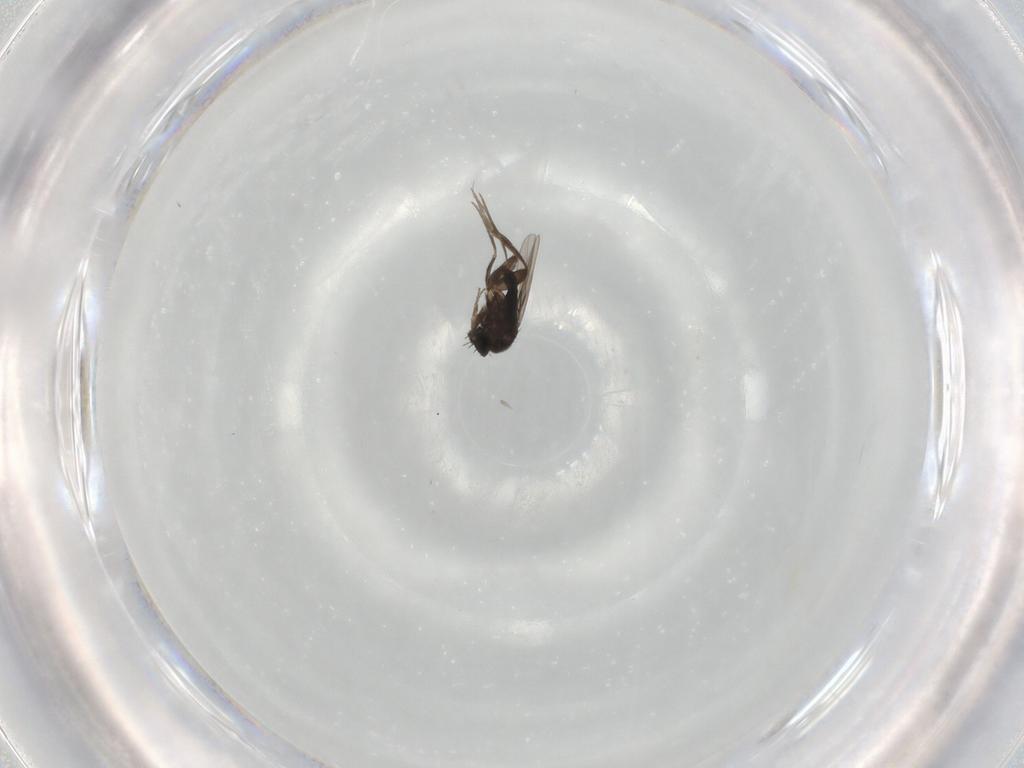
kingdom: Animalia
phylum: Arthropoda
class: Insecta
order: Diptera
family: Phoridae
